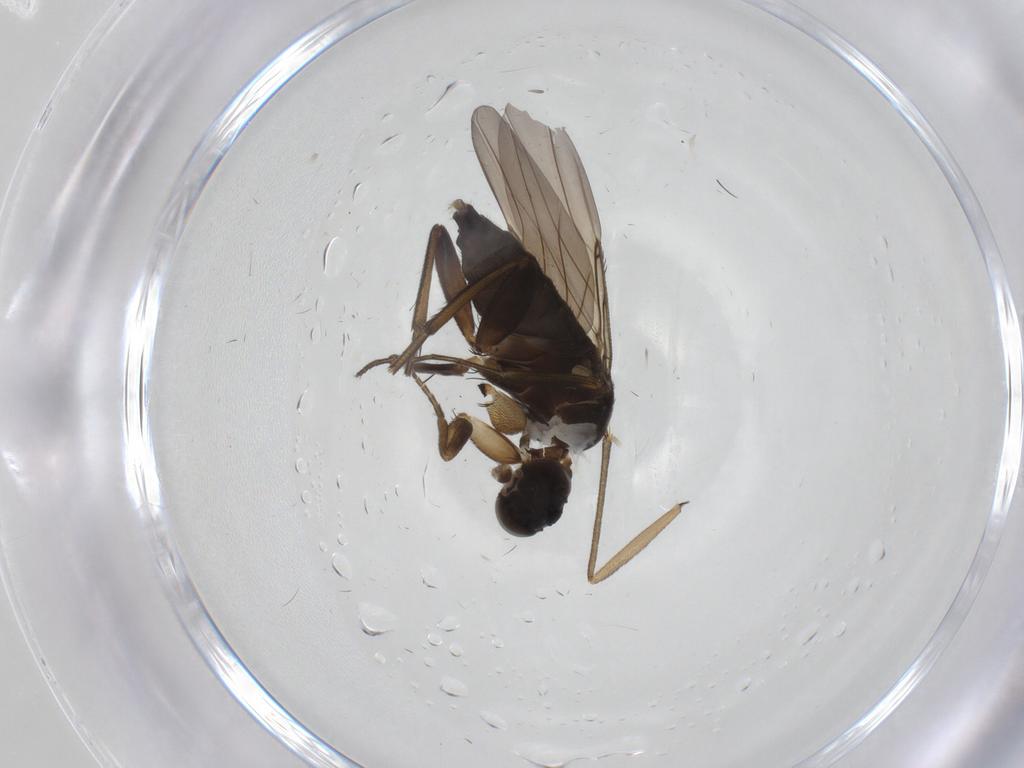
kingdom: Animalia
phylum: Arthropoda
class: Insecta
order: Diptera
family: Phoridae
